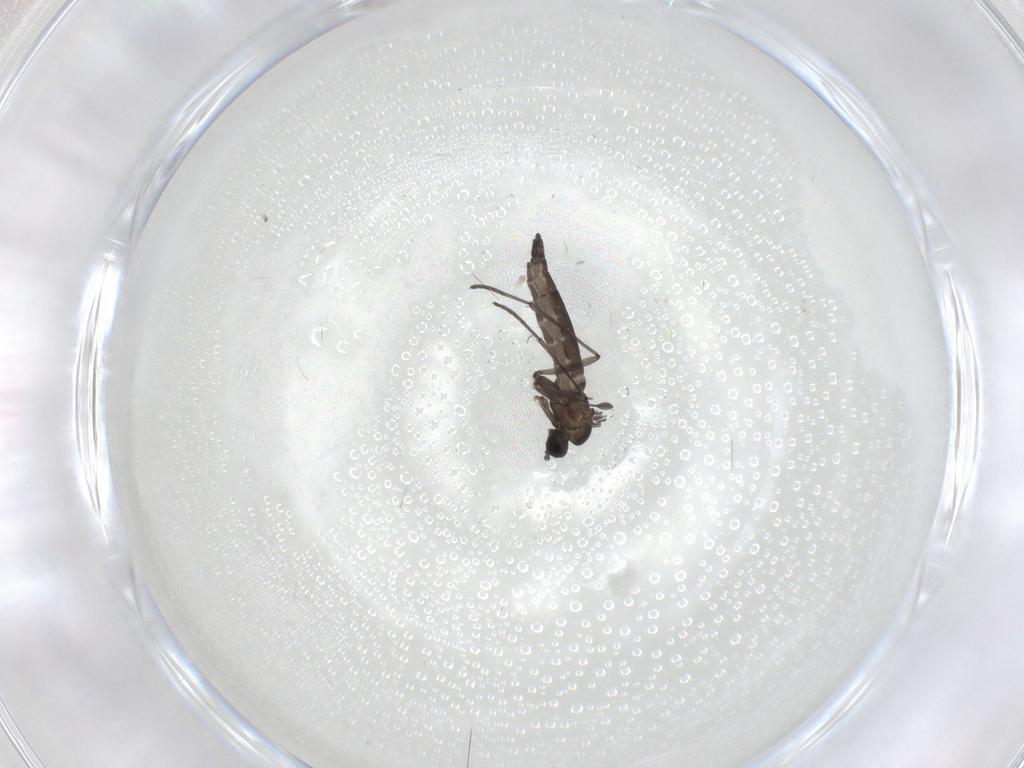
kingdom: Animalia
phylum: Arthropoda
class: Insecta
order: Diptera
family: Sciaridae
